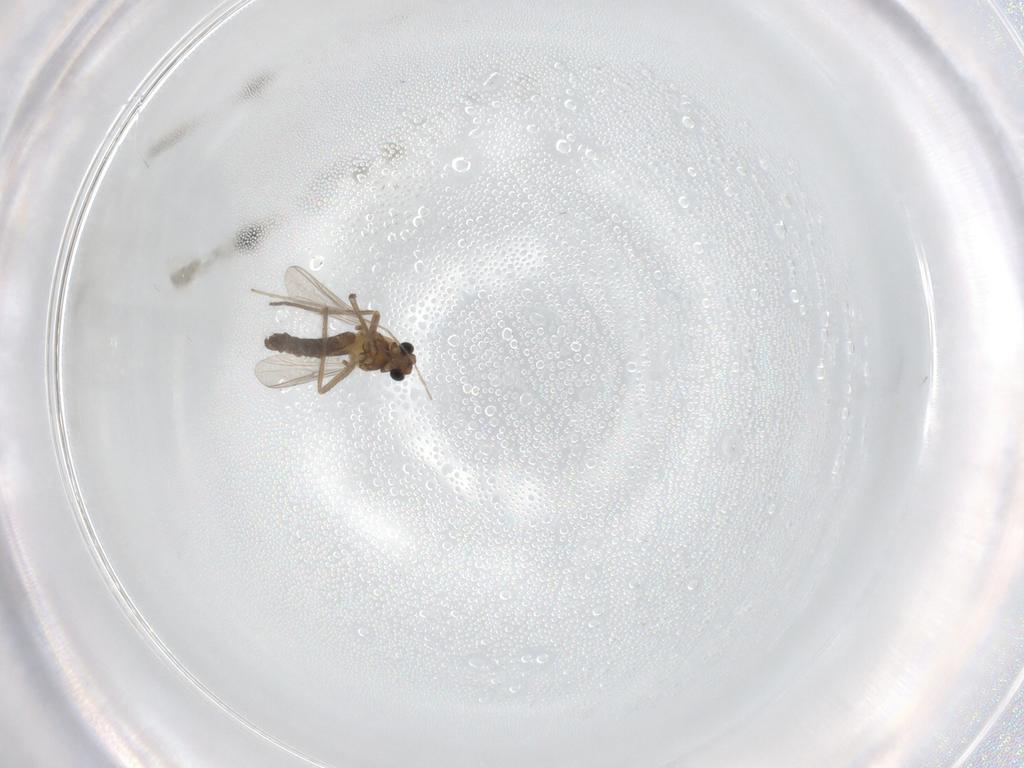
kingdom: Animalia
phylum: Arthropoda
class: Insecta
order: Diptera
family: Chironomidae
